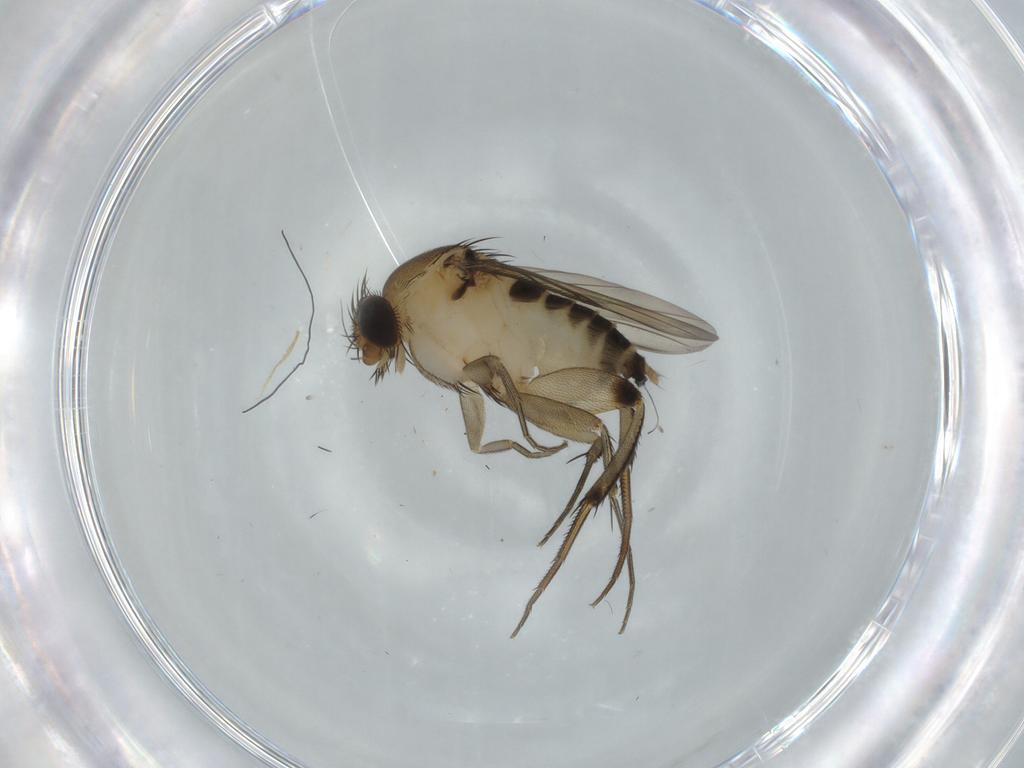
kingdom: Animalia
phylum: Arthropoda
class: Insecta
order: Diptera
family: Phoridae
